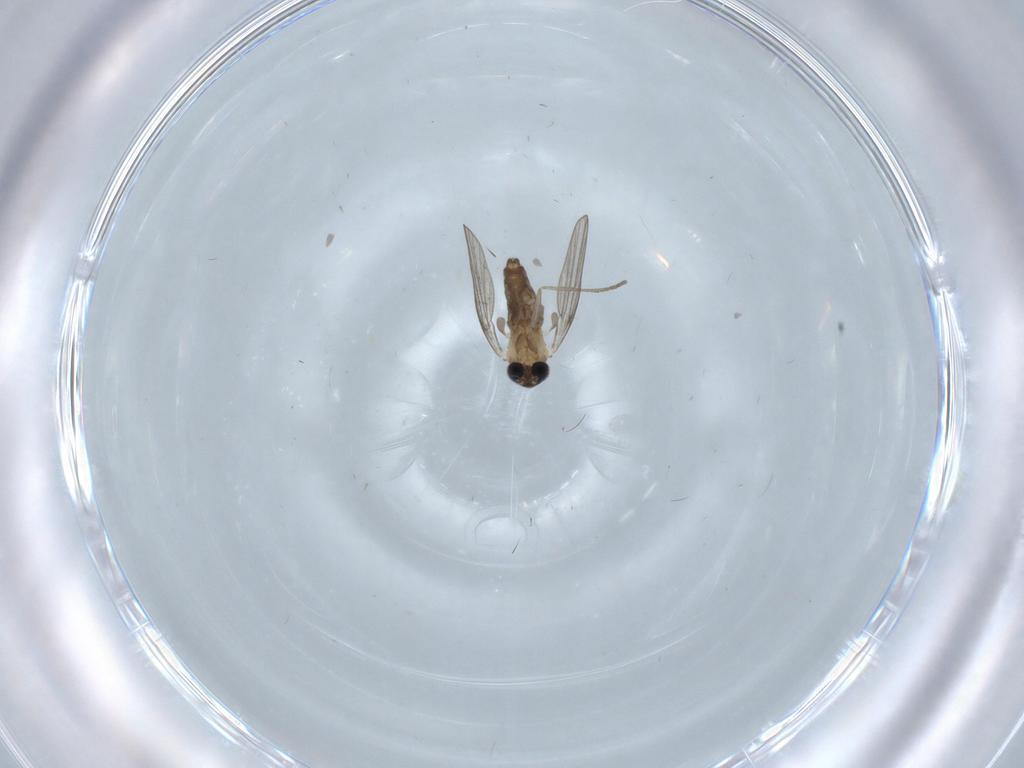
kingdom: Animalia
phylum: Arthropoda
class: Insecta
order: Diptera
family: Psychodidae
